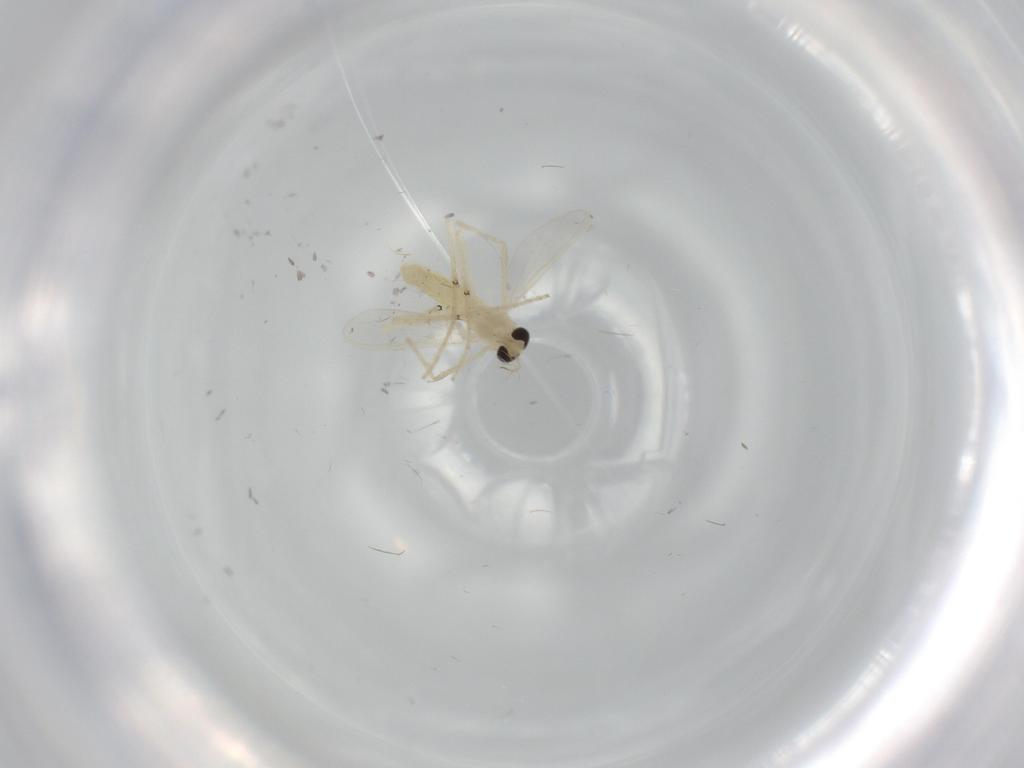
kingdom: Animalia
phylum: Arthropoda
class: Insecta
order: Diptera
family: Chironomidae
